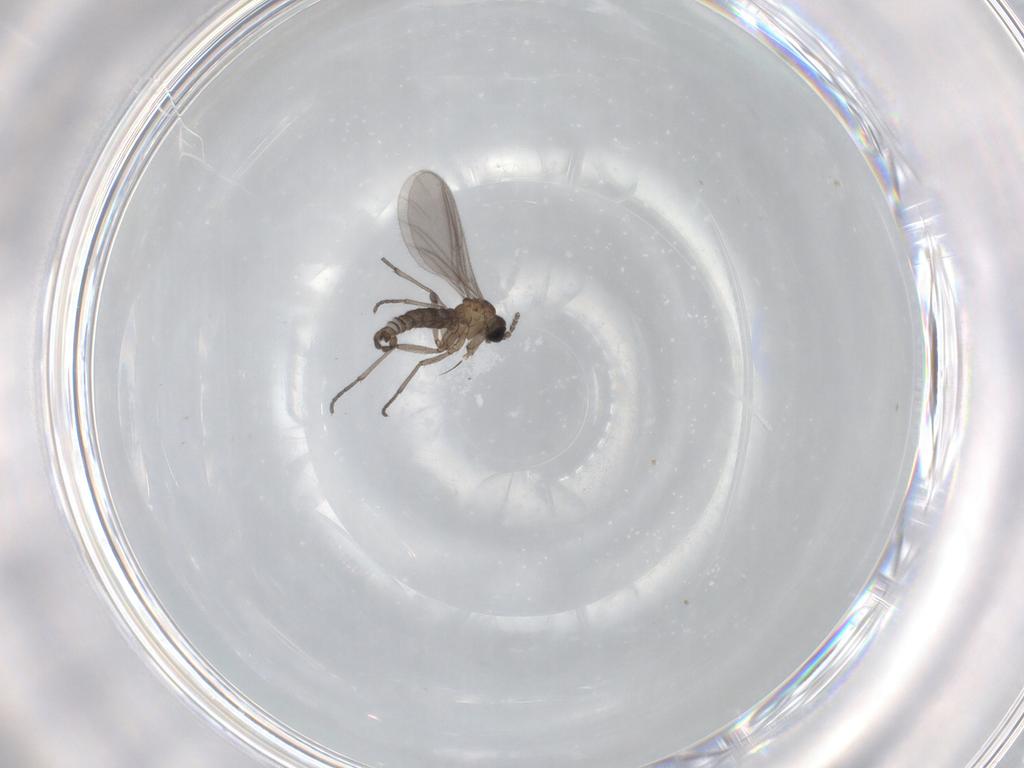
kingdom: Animalia
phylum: Arthropoda
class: Insecta
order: Diptera
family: Sciaridae
